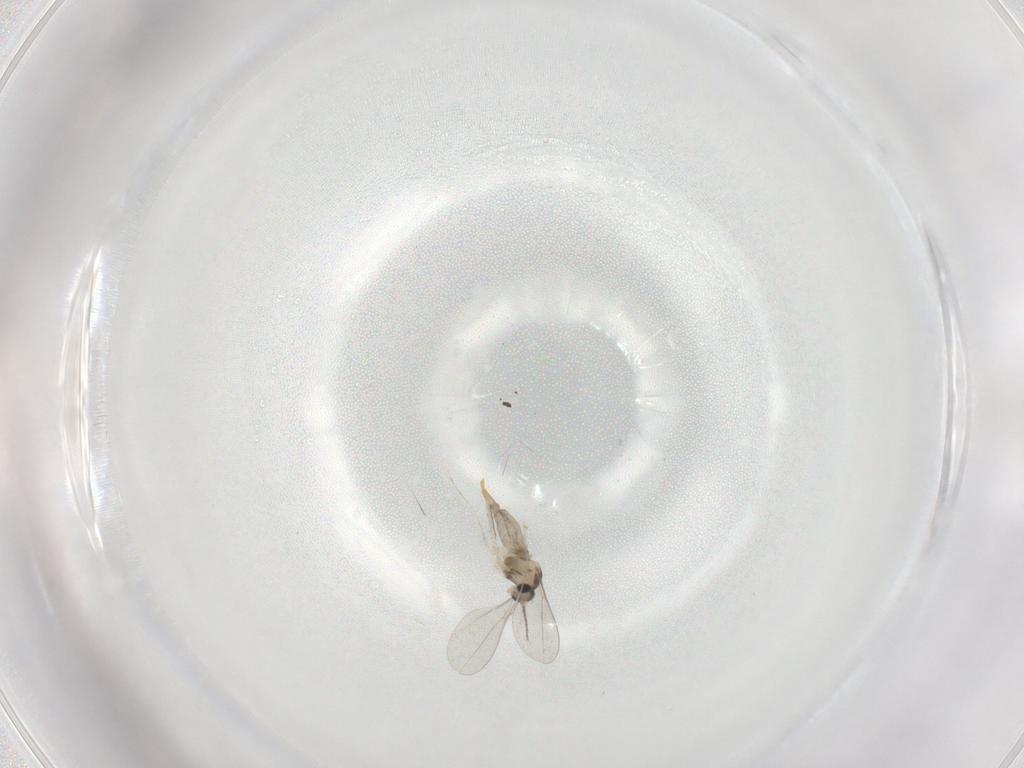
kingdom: Animalia
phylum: Arthropoda
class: Insecta
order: Diptera
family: Cecidomyiidae
